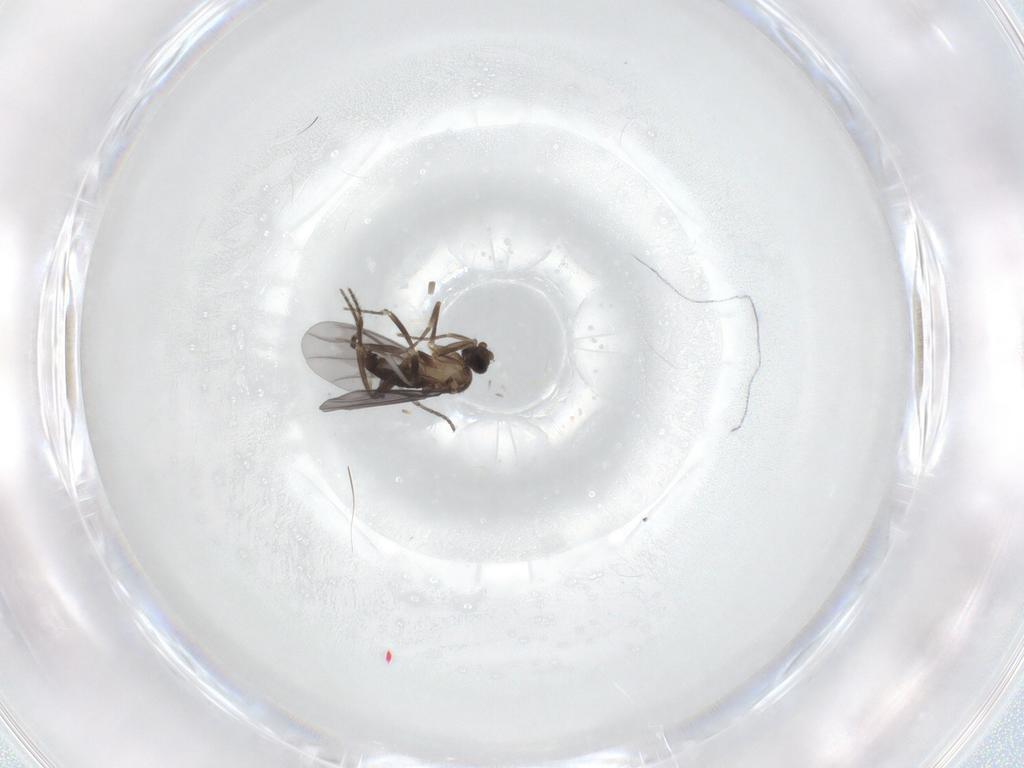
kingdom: Animalia
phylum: Arthropoda
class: Insecta
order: Diptera
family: Sciaridae
